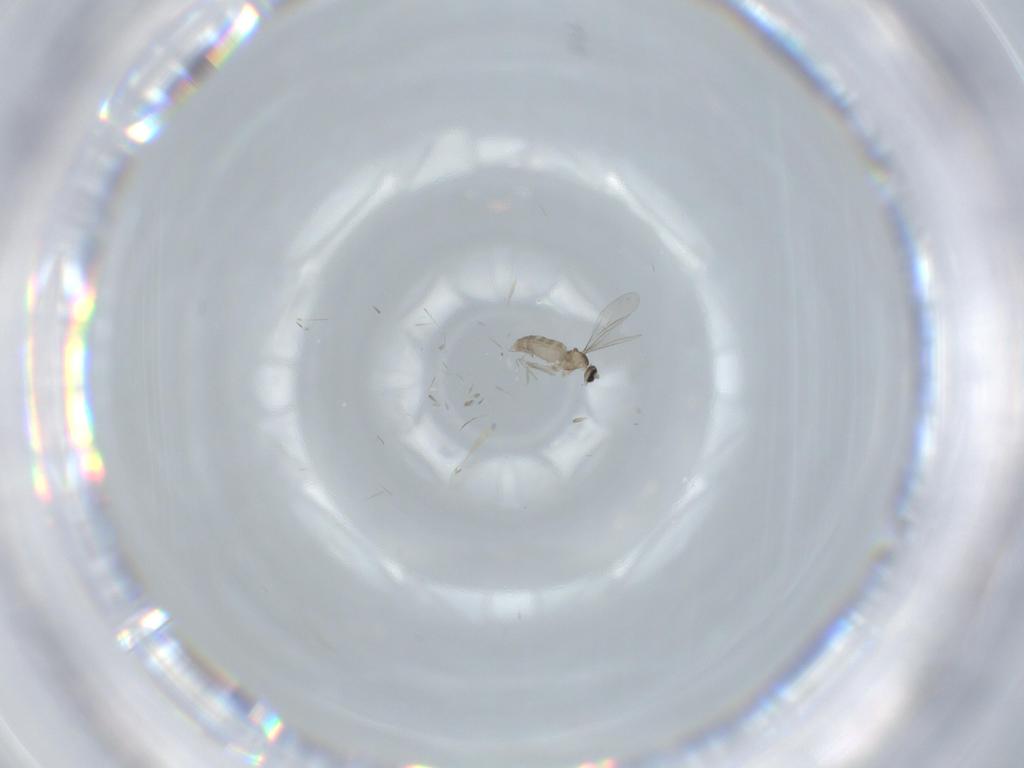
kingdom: Animalia
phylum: Arthropoda
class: Insecta
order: Diptera
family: Cecidomyiidae
